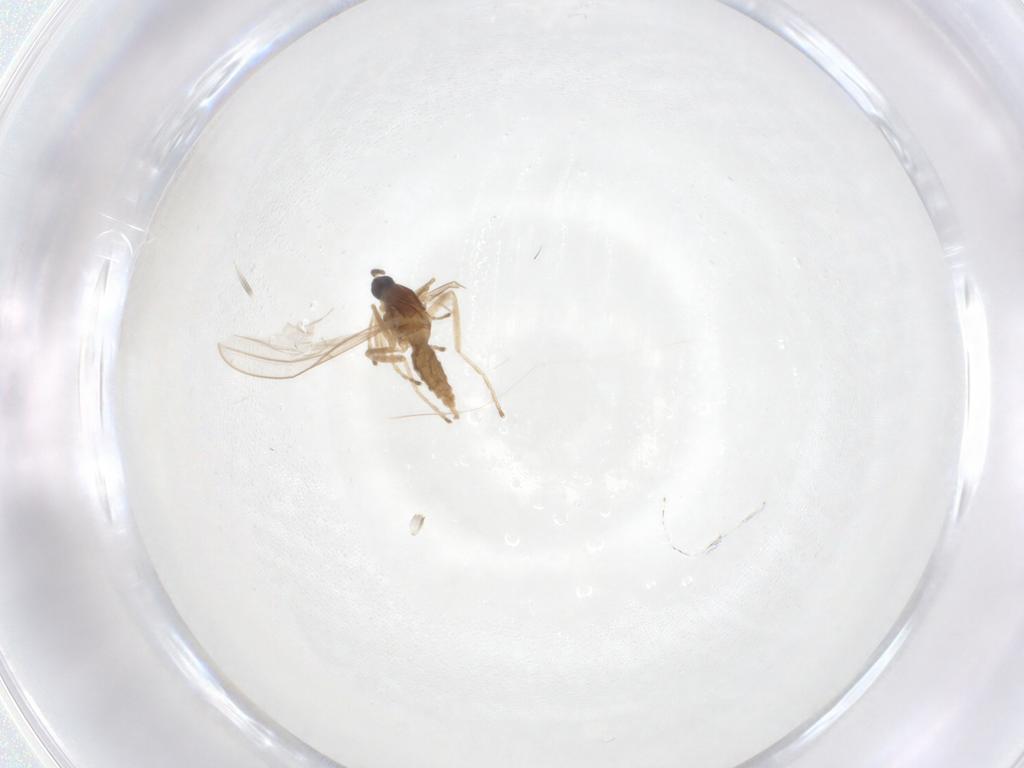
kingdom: Animalia
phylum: Arthropoda
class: Insecta
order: Diptera
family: Cecidomyiidae
